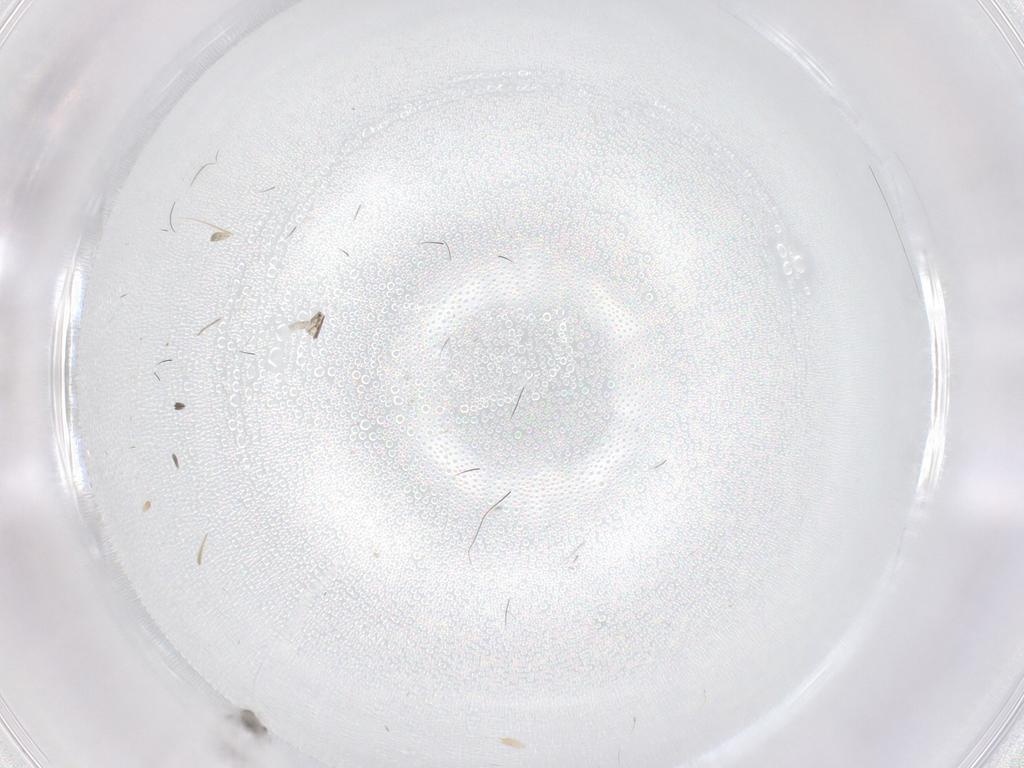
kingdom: Animalia
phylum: Arthropoda
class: Insecta
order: Diptera
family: Cecidomyiidae
